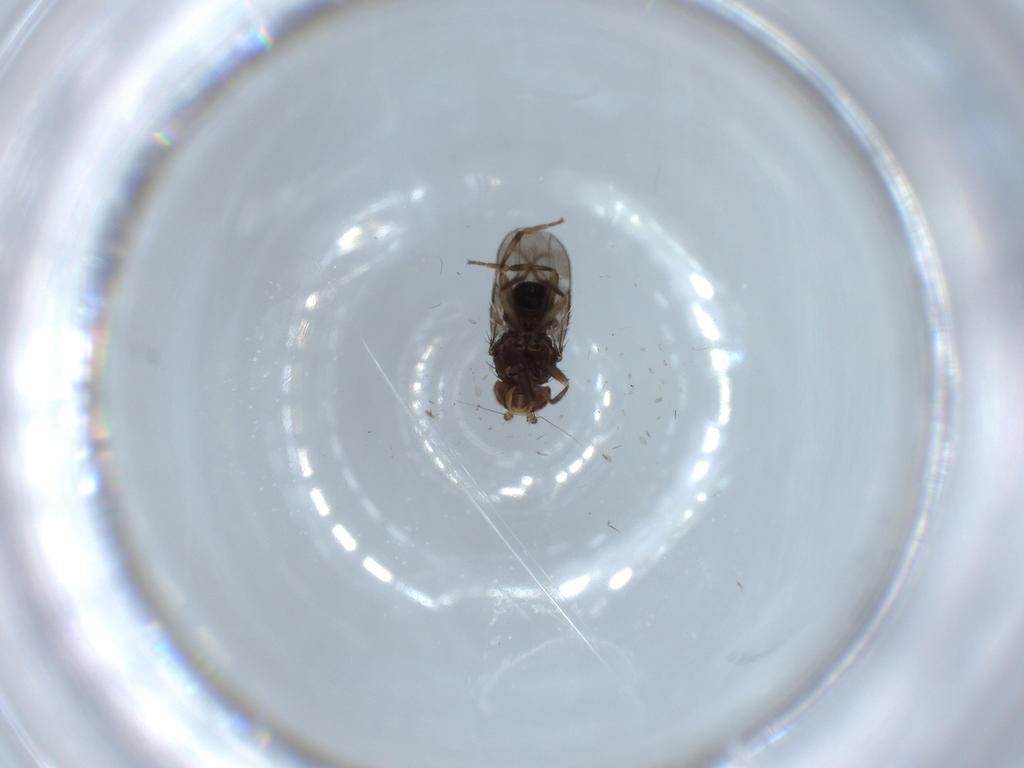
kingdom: Animalia
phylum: Arthropoda
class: Insecta
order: Diptera
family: Sphaeroceridae
